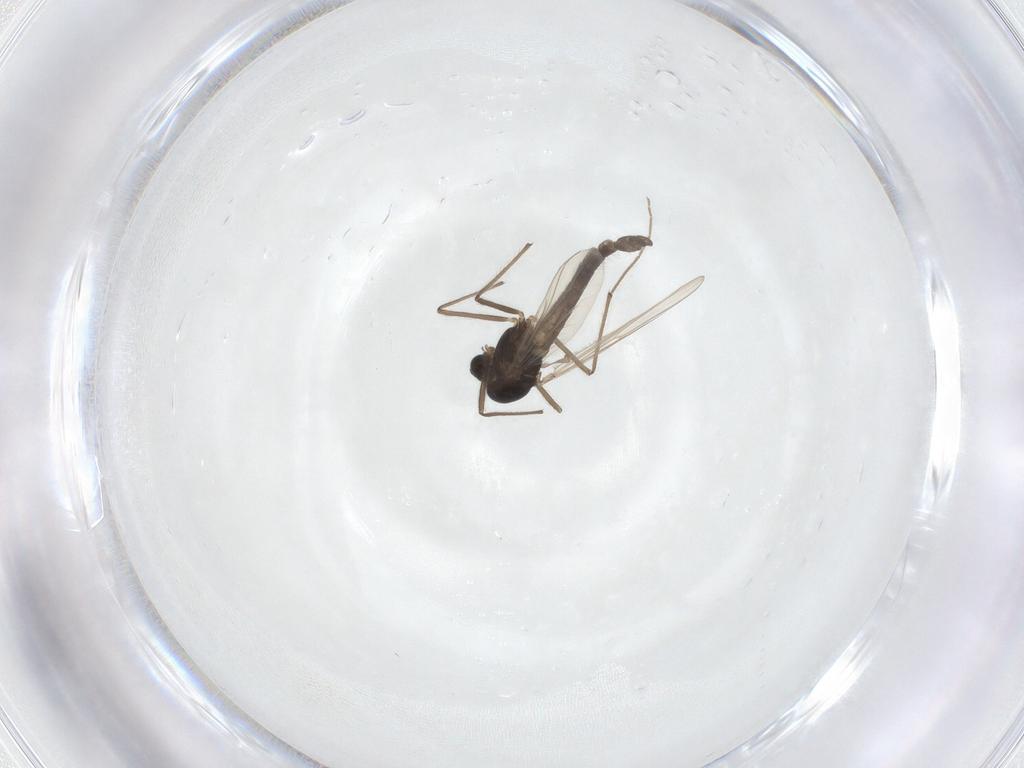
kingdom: Animalia
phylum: Arthropoda
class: Insecta
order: Diptera
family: Chironomidae
